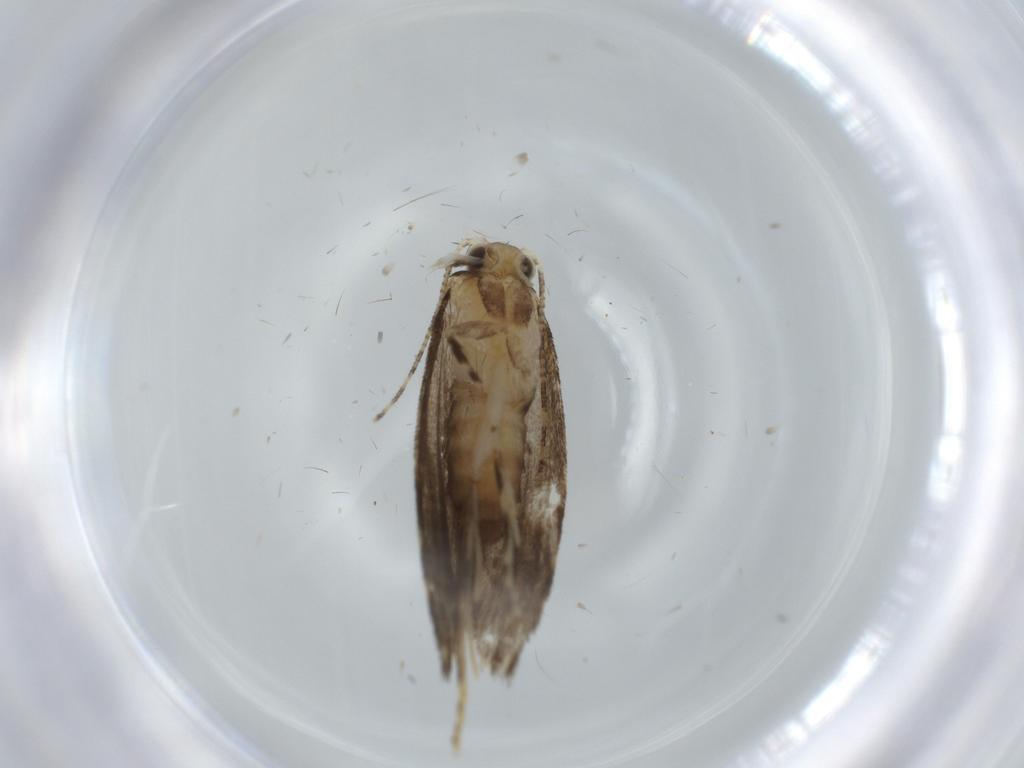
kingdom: Animalia
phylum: Arthropoda
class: Insecta
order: Lepidoptera
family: Tineidae
